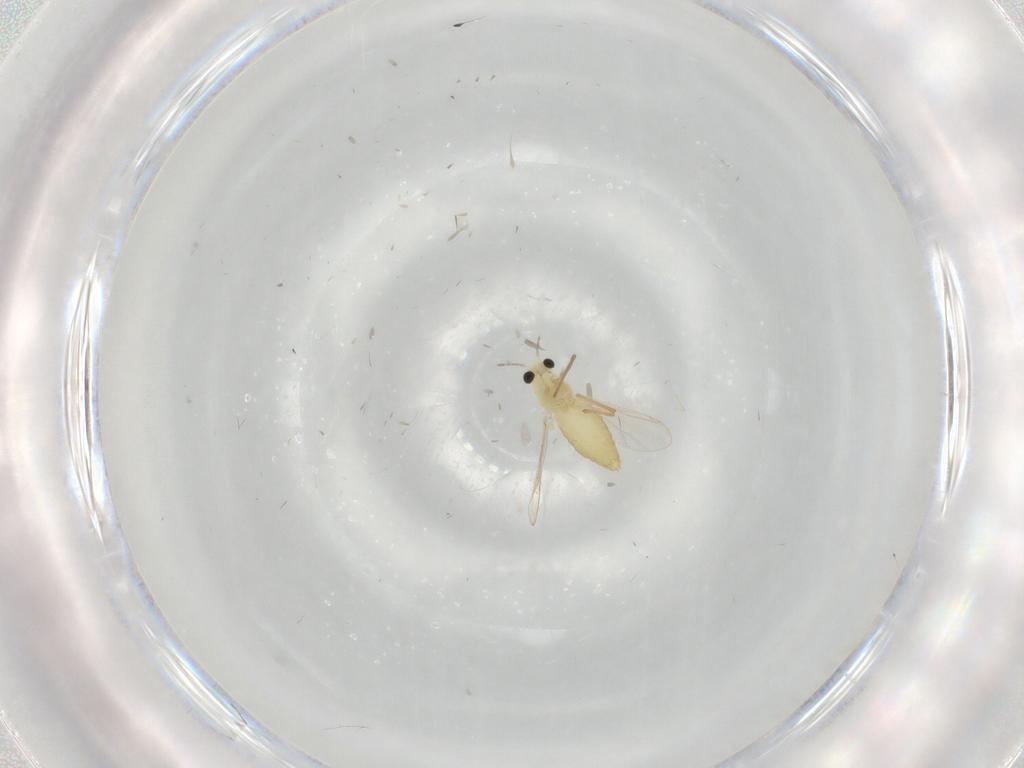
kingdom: Animalia
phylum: Arthropoda
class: Insecta
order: Diptera
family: Chironomidae
